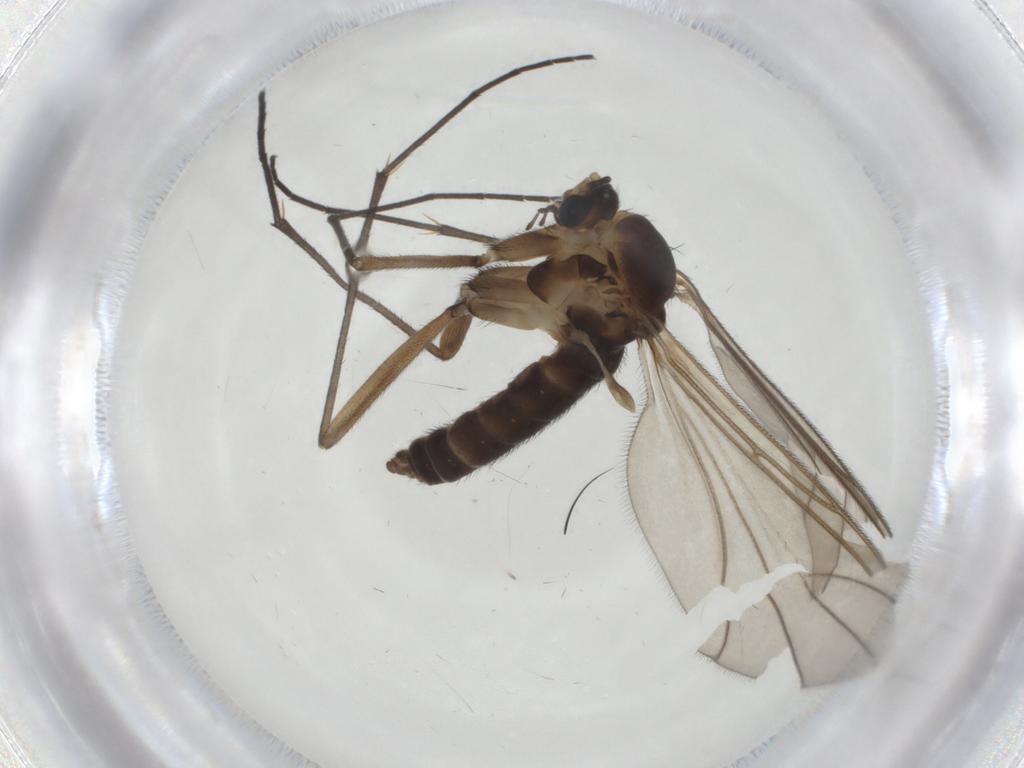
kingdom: Animalia
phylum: Arthropoda
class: Insecta
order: Diptera
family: Sciaridae
